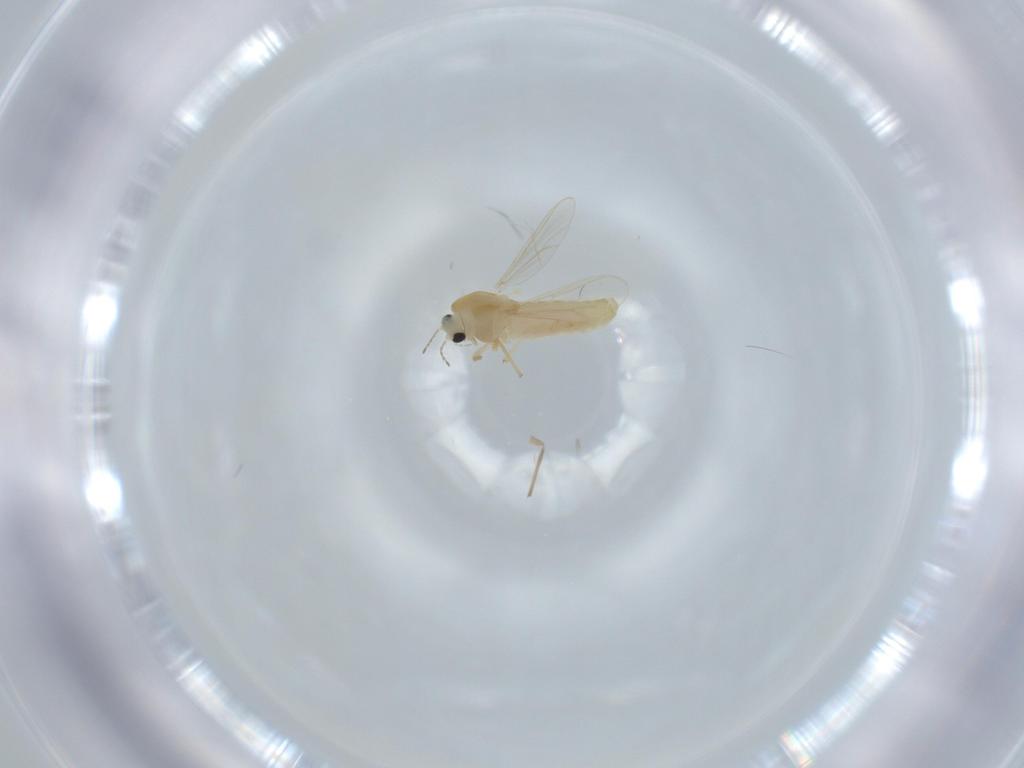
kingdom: Animalia
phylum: Arthropoda
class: Insecta
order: Diptera
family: Chironomidae
